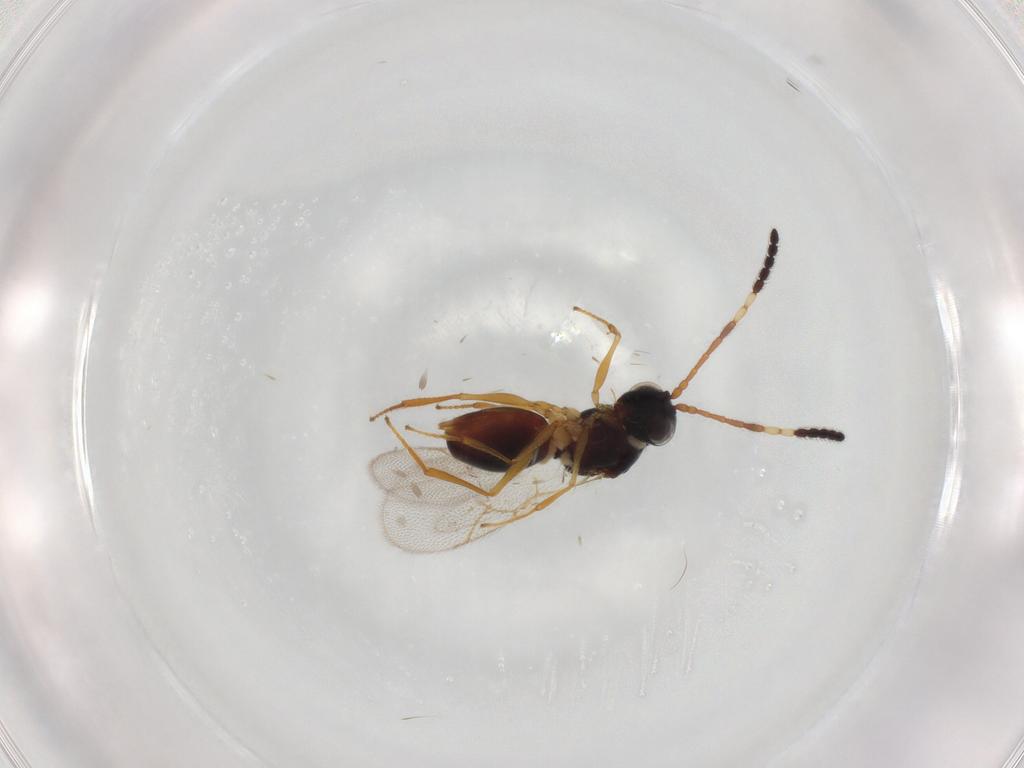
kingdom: Animalia
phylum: Arthropoda
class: Insecta
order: Hymenoptera
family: Figitidae
